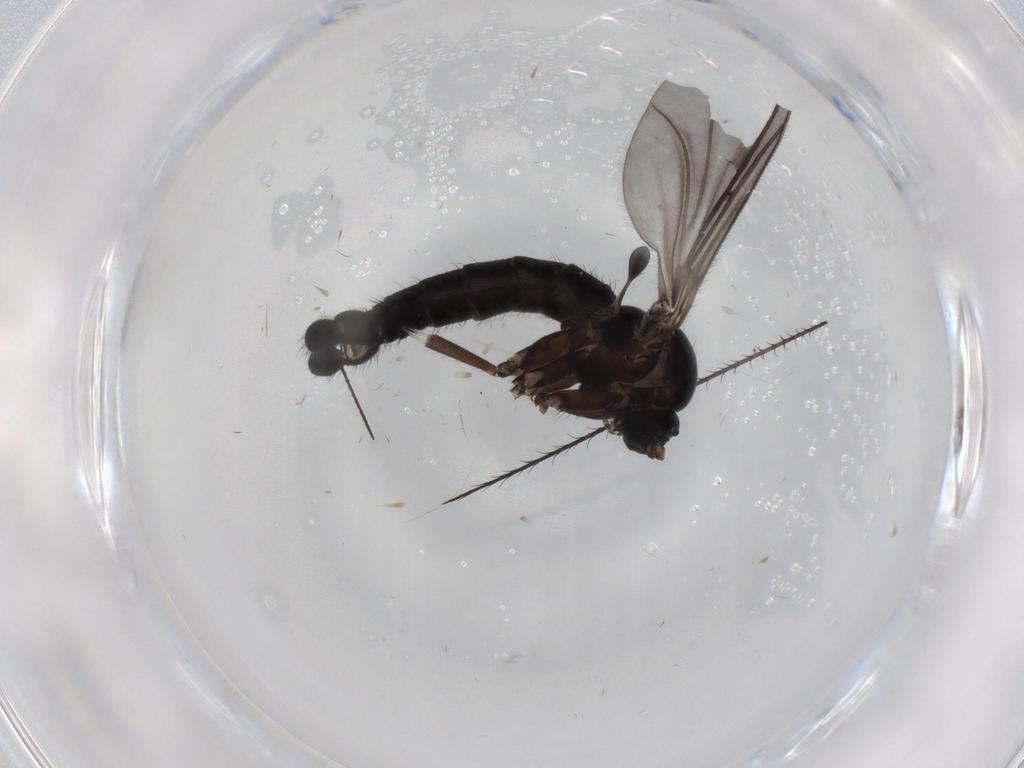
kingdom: Animalia
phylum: Arthropoda
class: Insecta
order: Diptera
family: Sciaridae
